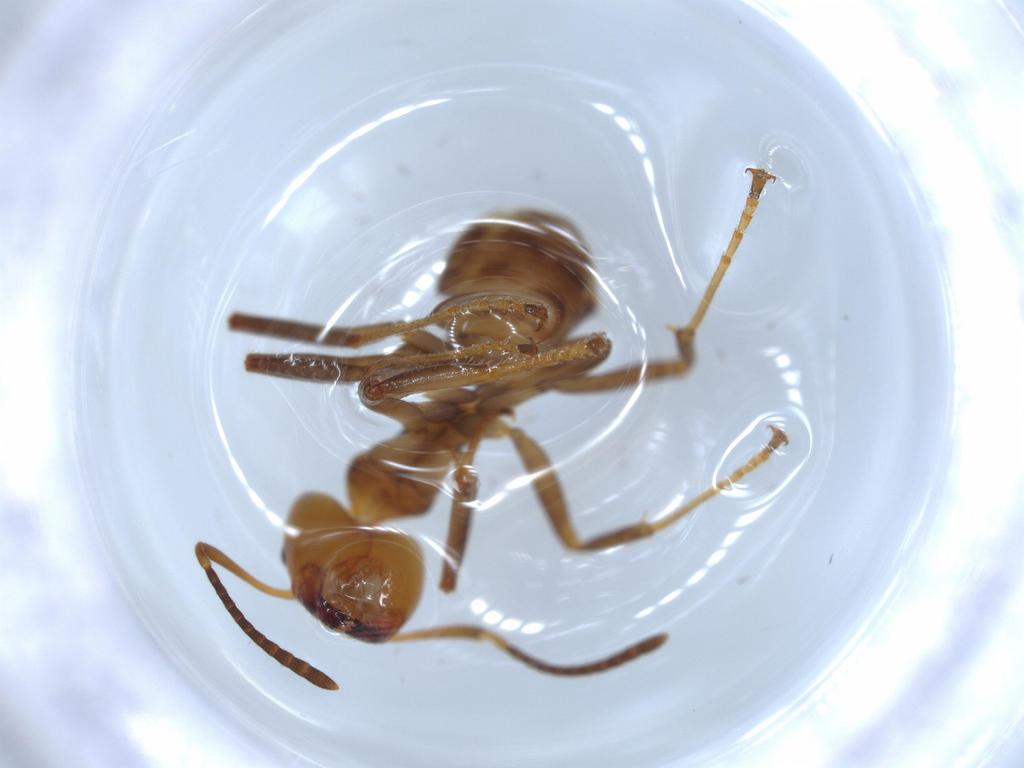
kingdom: Animalia
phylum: Arthropoda
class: Insecta
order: Hymenoptera
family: Formicidae
